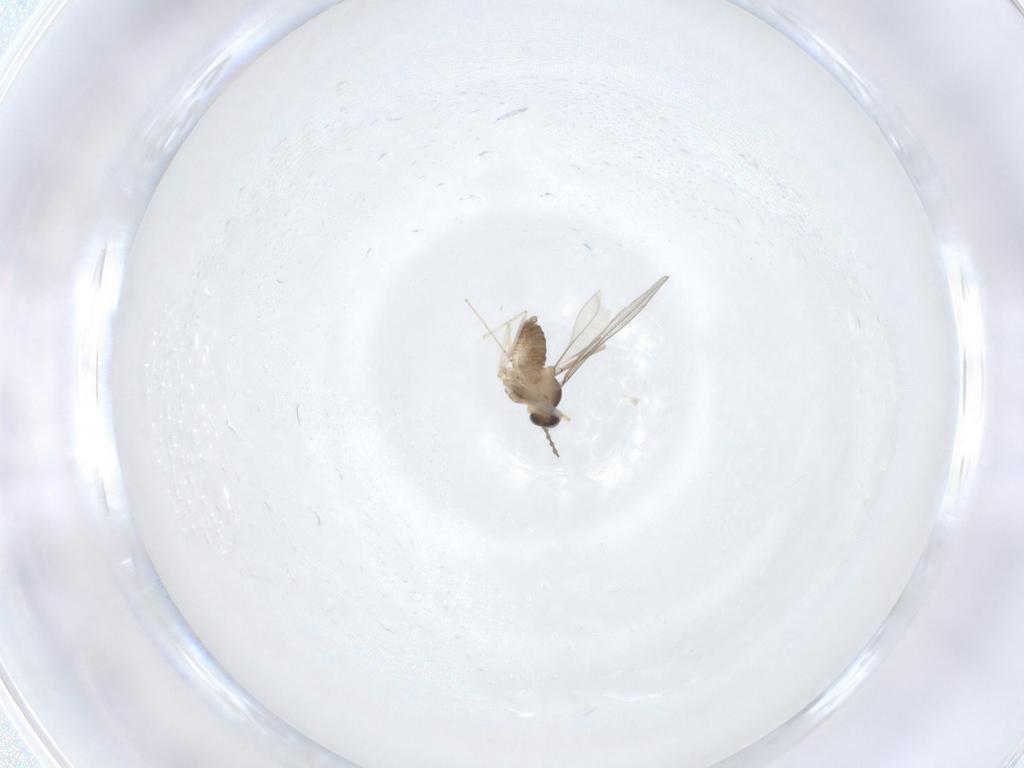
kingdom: Animalia
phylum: Arthropoda
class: Insecta
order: Diptera
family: Cecidomyiidae
